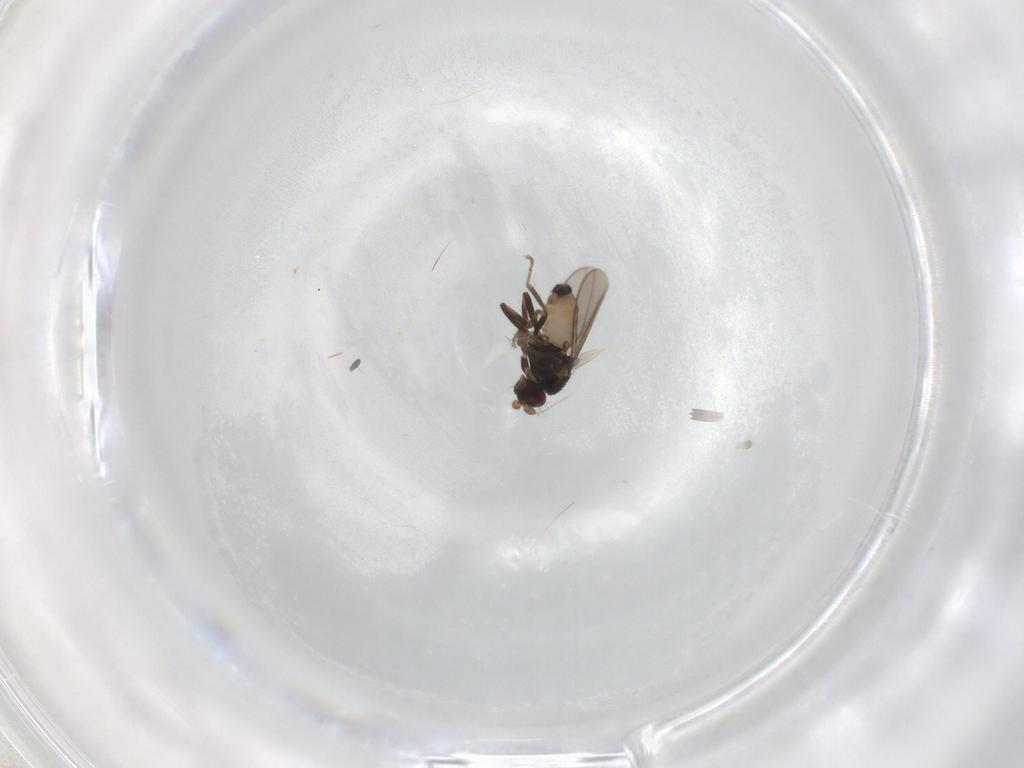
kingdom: Animalia
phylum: Arthropoda
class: Insecta
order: Diptera
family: Sphaeroceridae
